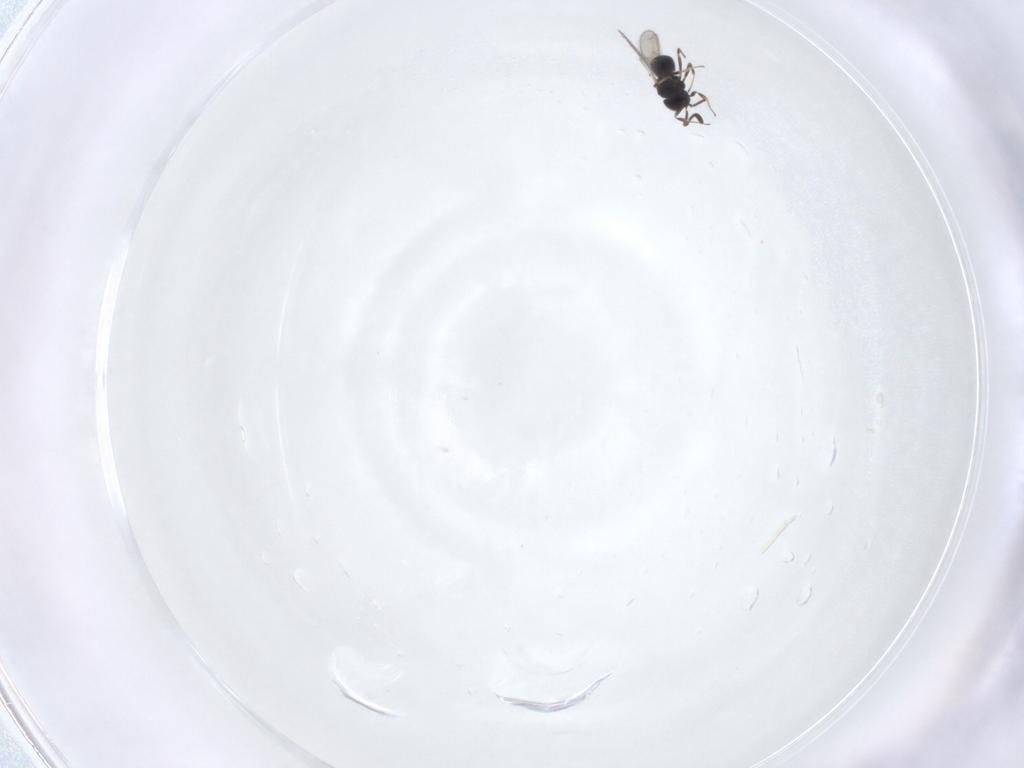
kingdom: Animalia
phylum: Arthropoda
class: Insecta
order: Hymenoptera
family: Scelionidae
